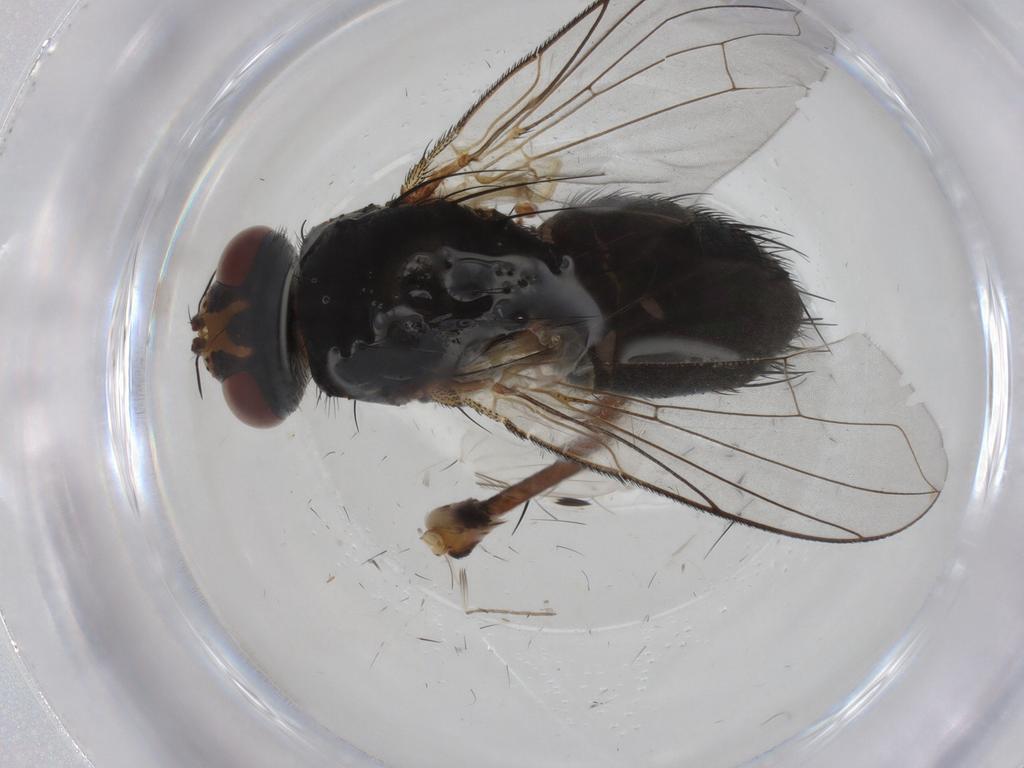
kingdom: Animalia
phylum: Arthropoda
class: Insecta
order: Diptera
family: Tachinidae
